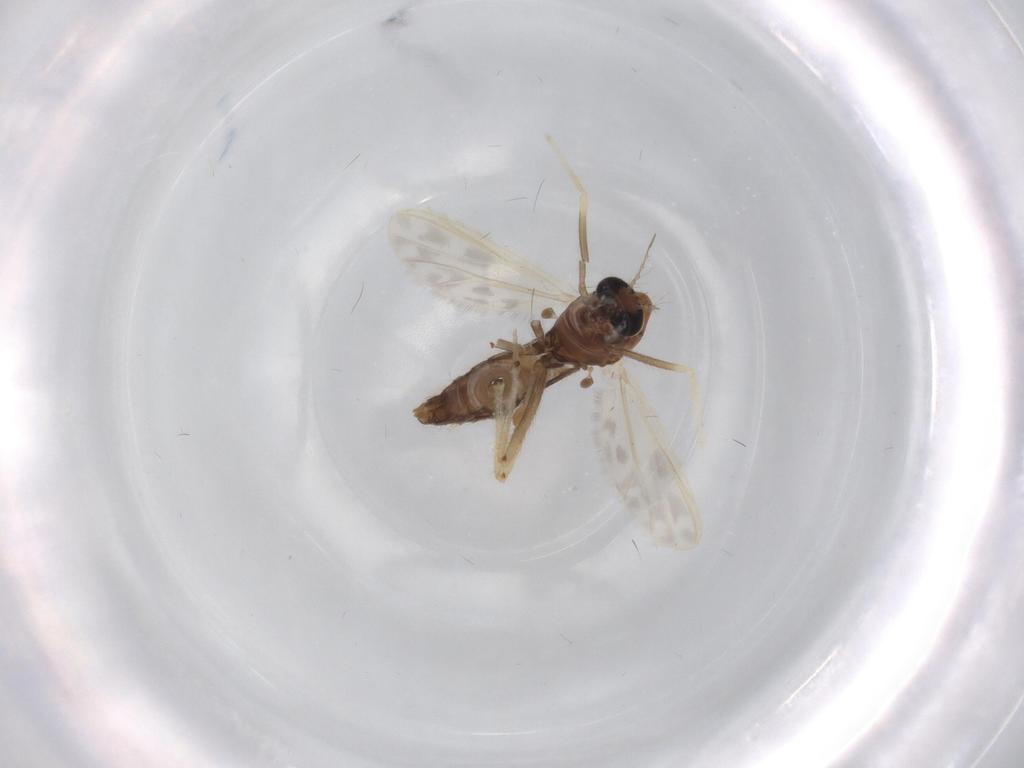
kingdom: Animalia
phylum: Arthropoda
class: Insecta
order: Diptera
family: Chironomidae
